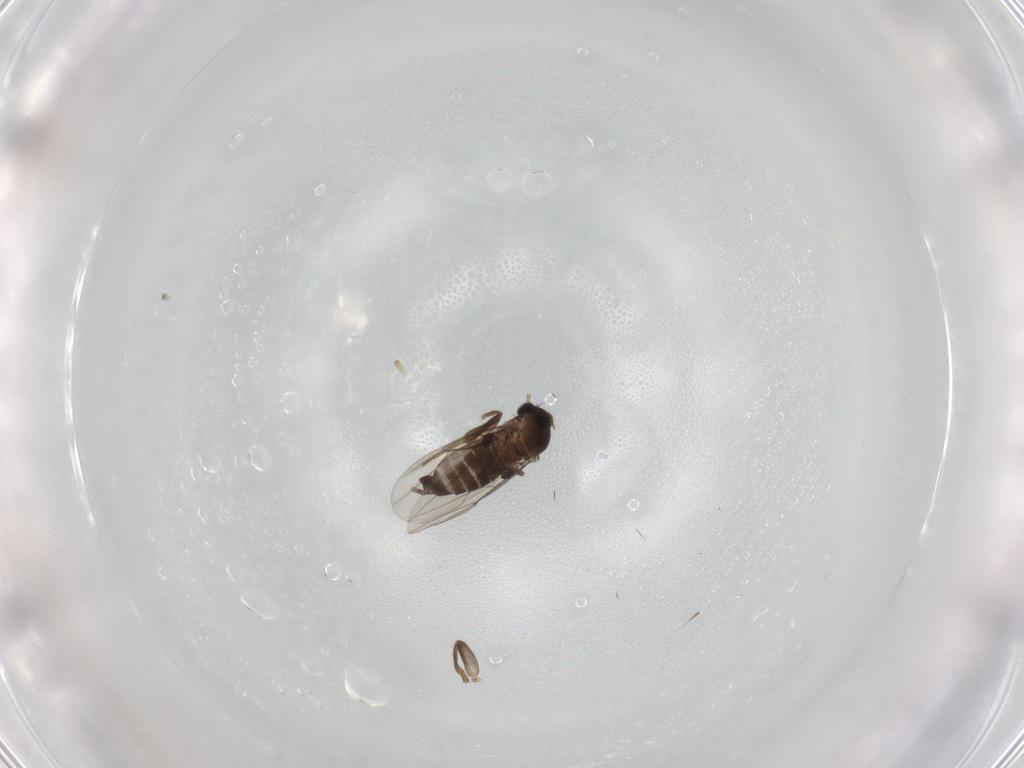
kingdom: Animalia
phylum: Arthropoda
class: Insecta
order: Diptera
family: Phoridae
